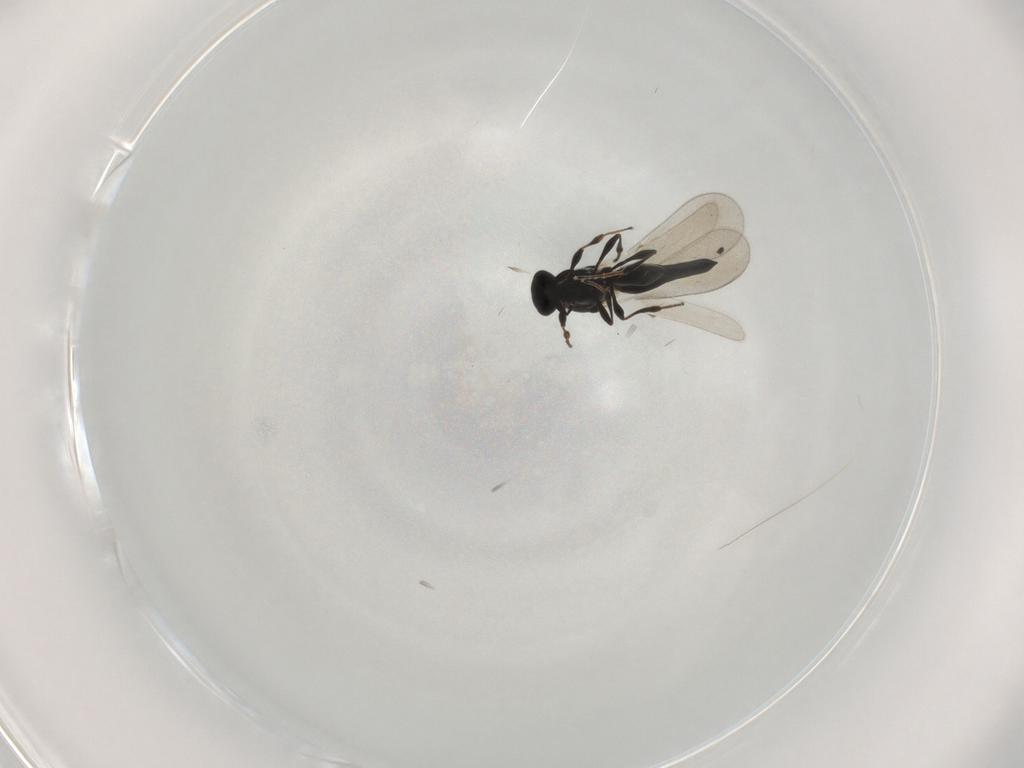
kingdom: Animalia
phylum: Arthropoda
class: Insecta
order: Hymenoptera
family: Platygastridae
